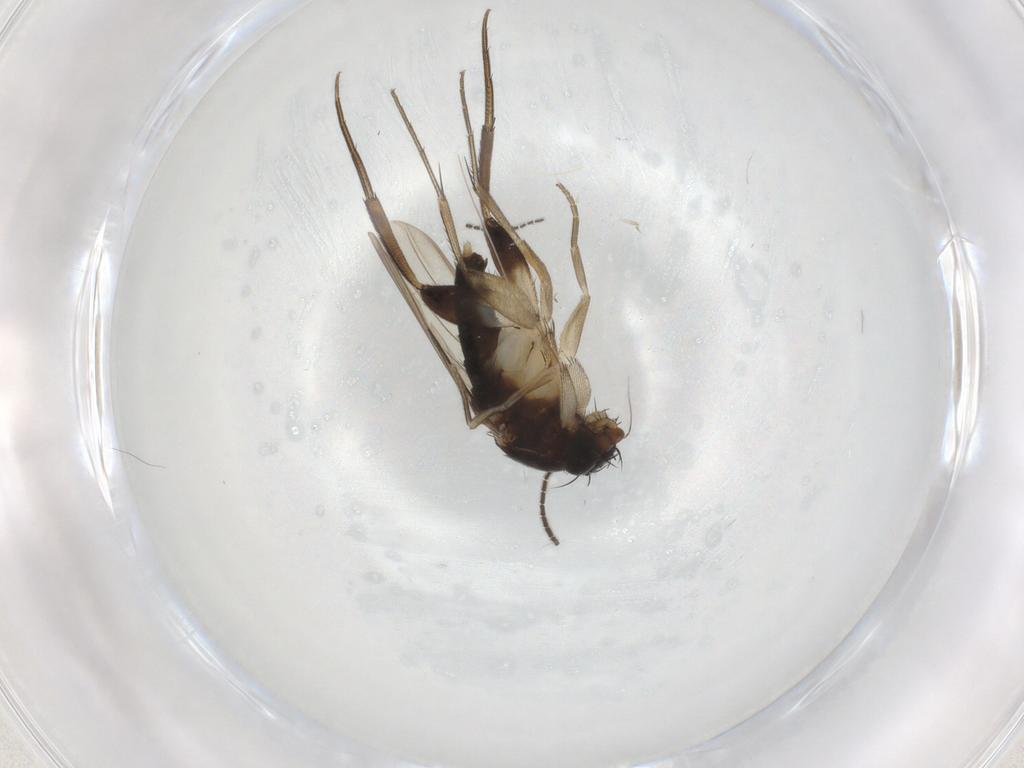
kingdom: Animalia
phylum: Arthropoda
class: Insecta
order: Diptera
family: Phoridae
